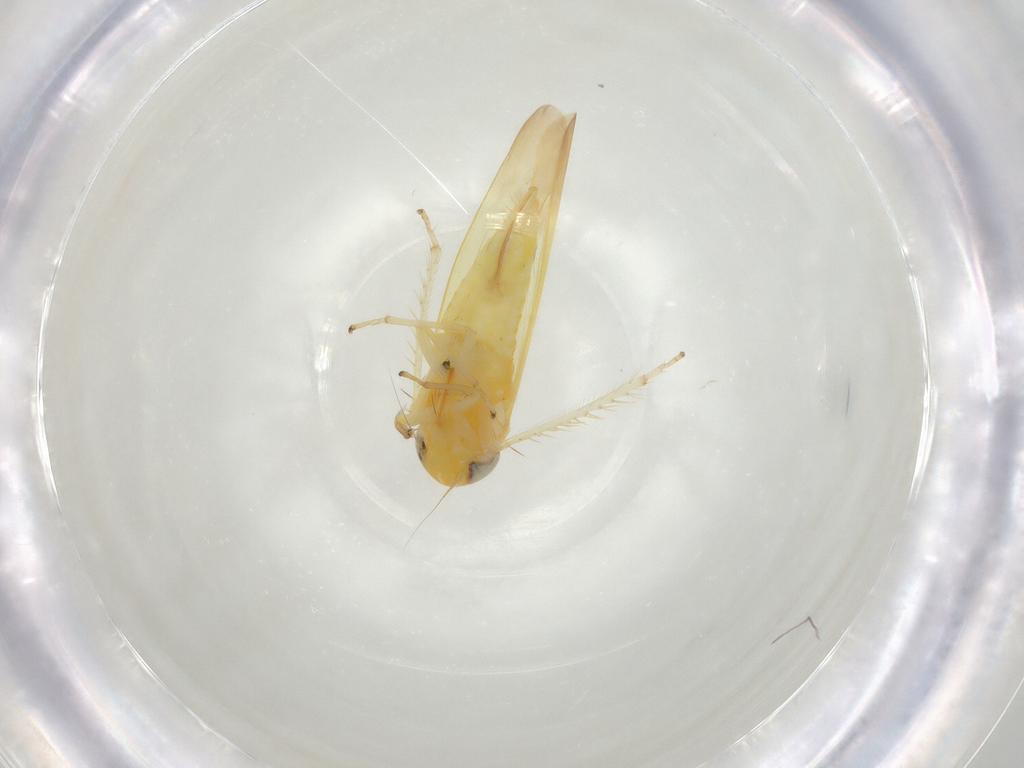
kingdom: Animalia
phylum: Arthropoda
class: Insecta
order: Hemiptera
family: Cicadellidae
